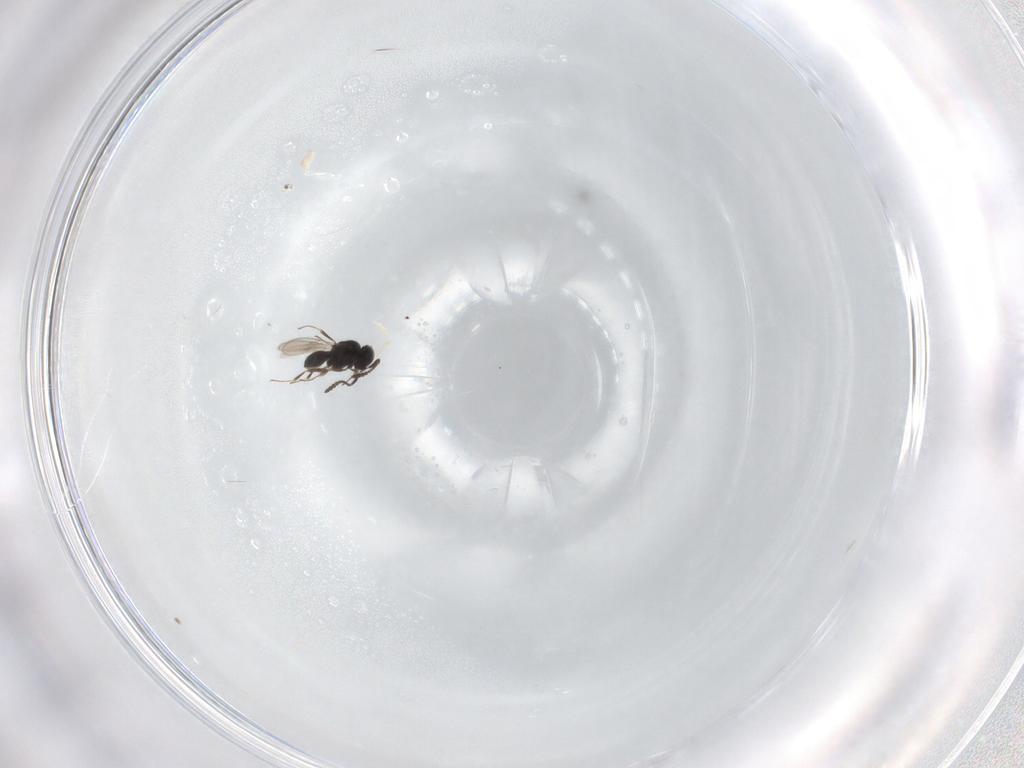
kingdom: Animalia
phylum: Arthropoda
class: Insecta
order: Hymenoptera
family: Scelionidae
